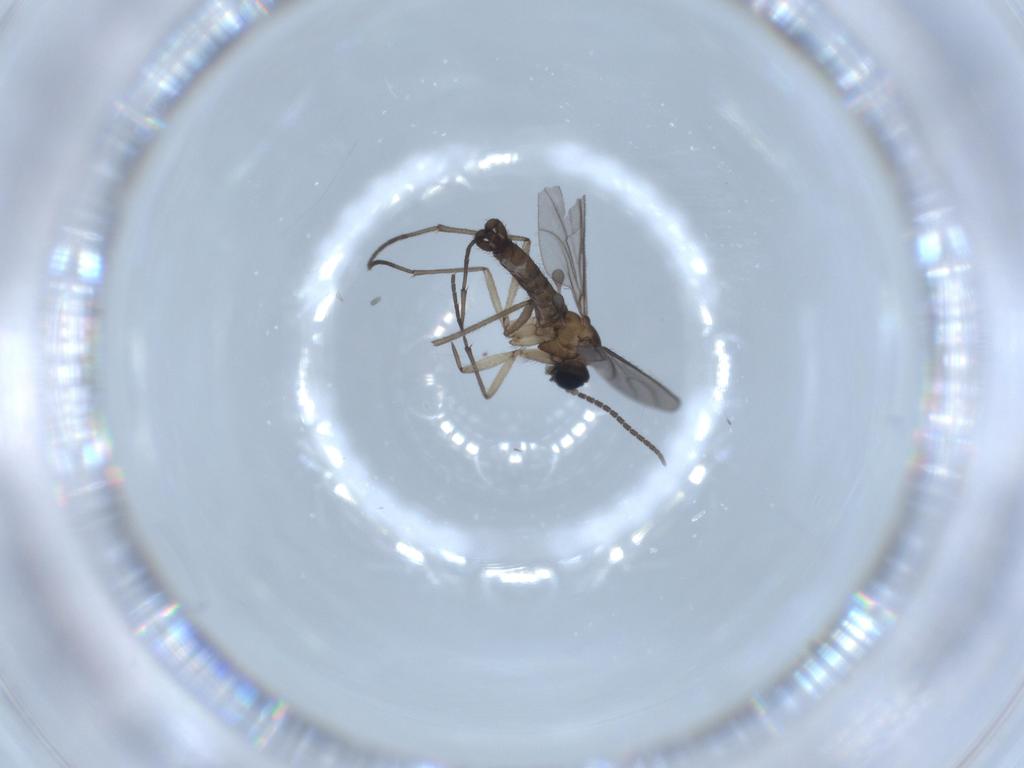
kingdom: Animalia
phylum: Arthropoda
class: Insecta
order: Diptera
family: Sciaridae
